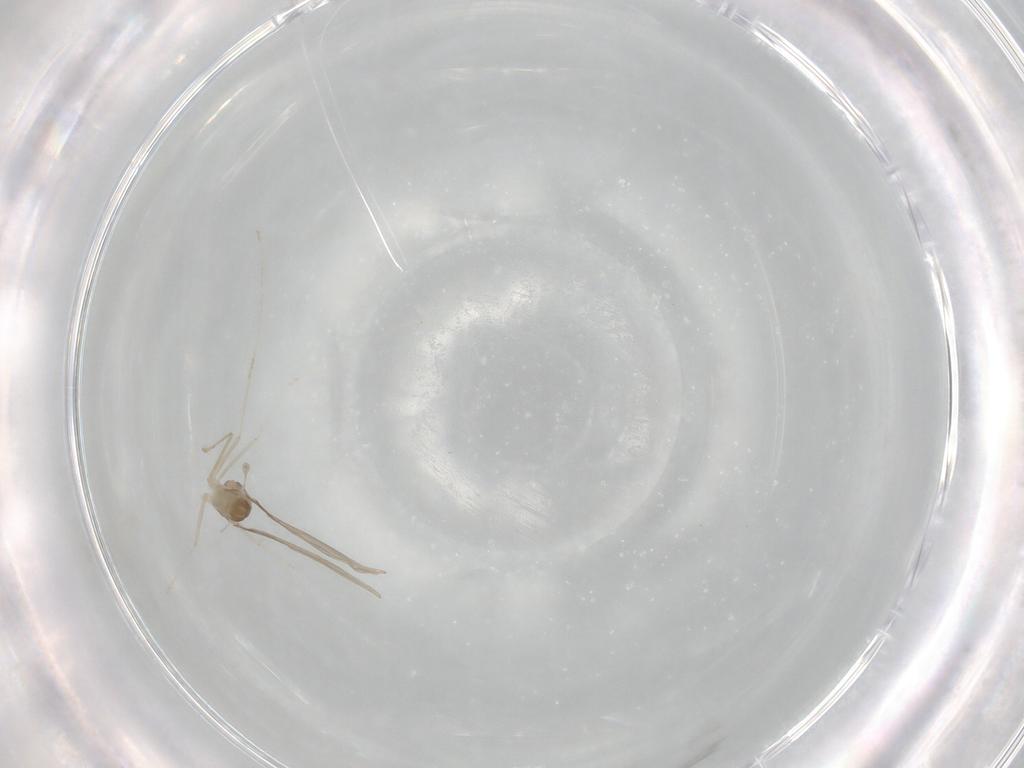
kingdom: Animalia
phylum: Arthropoda
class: Insecta
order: Diptera
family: Cecidomyiidae
